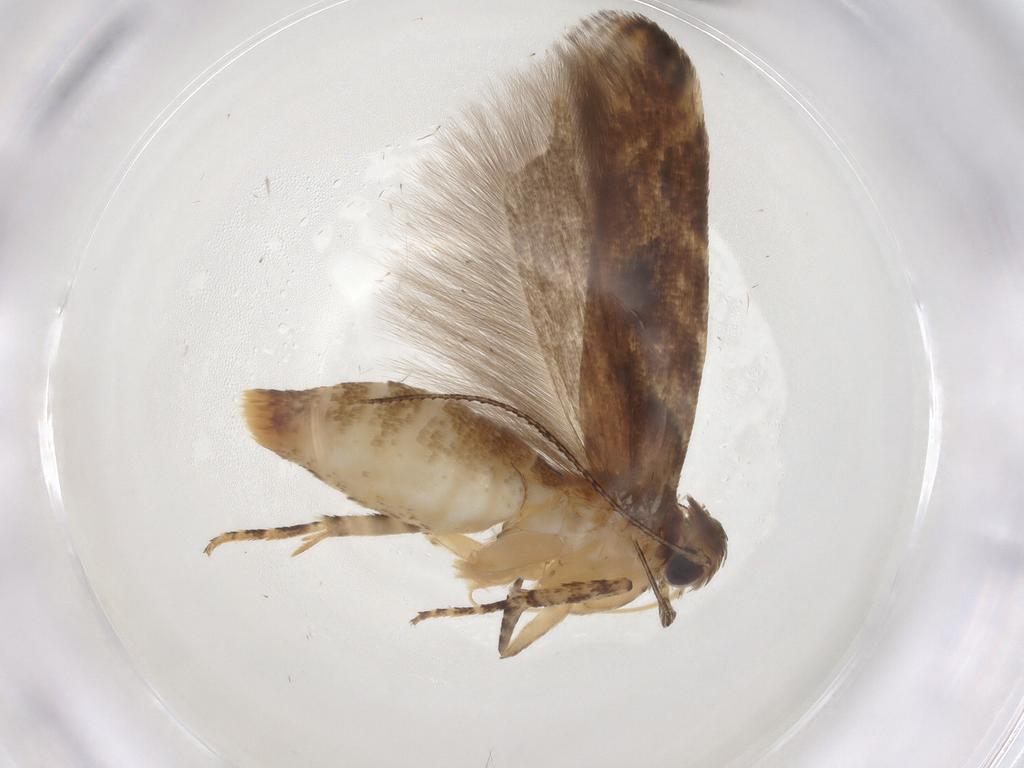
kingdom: Animalia
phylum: Arthropoda
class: Insecta
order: Lepidoptera
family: Gelechiidae
